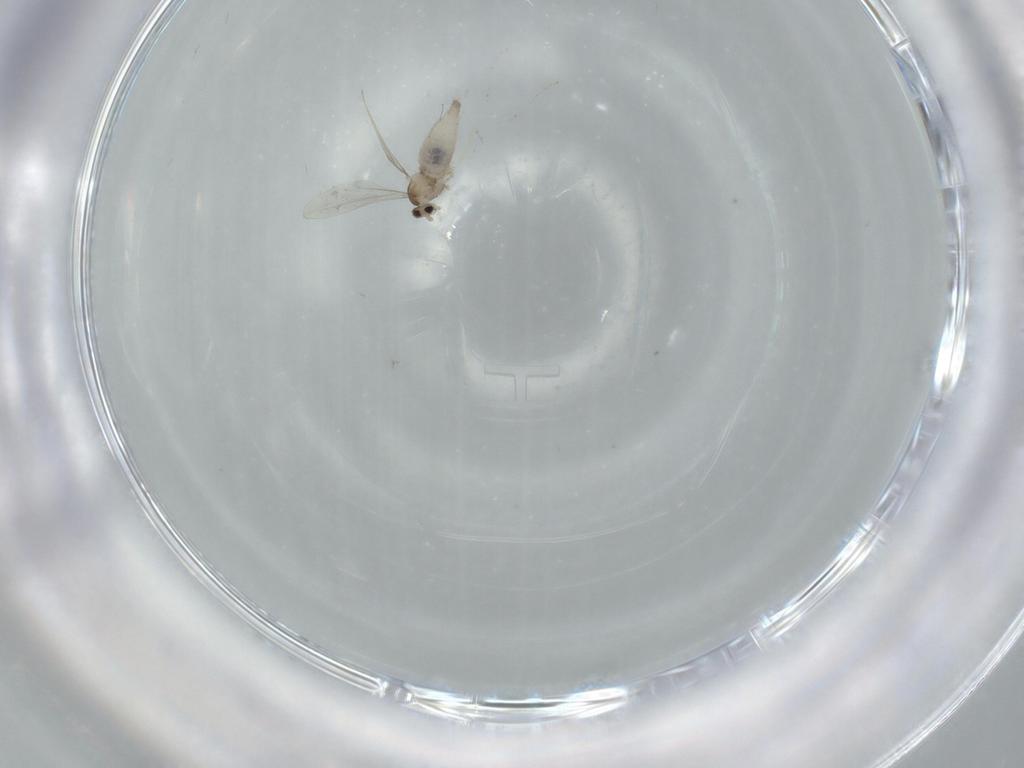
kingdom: Animalia
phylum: Arthropoda
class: Insecta
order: Diptera
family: Cecidomyiidae
